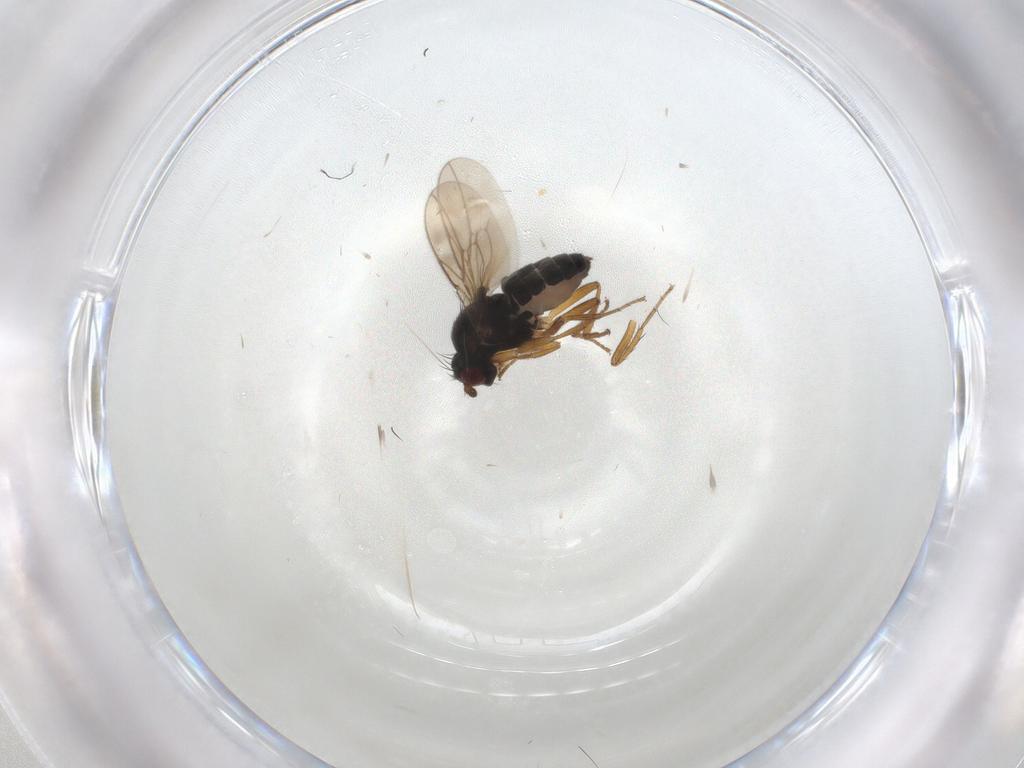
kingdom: Animalia
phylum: Arthropoda
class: Insecta
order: Diptera
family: Sphaeroceridae
